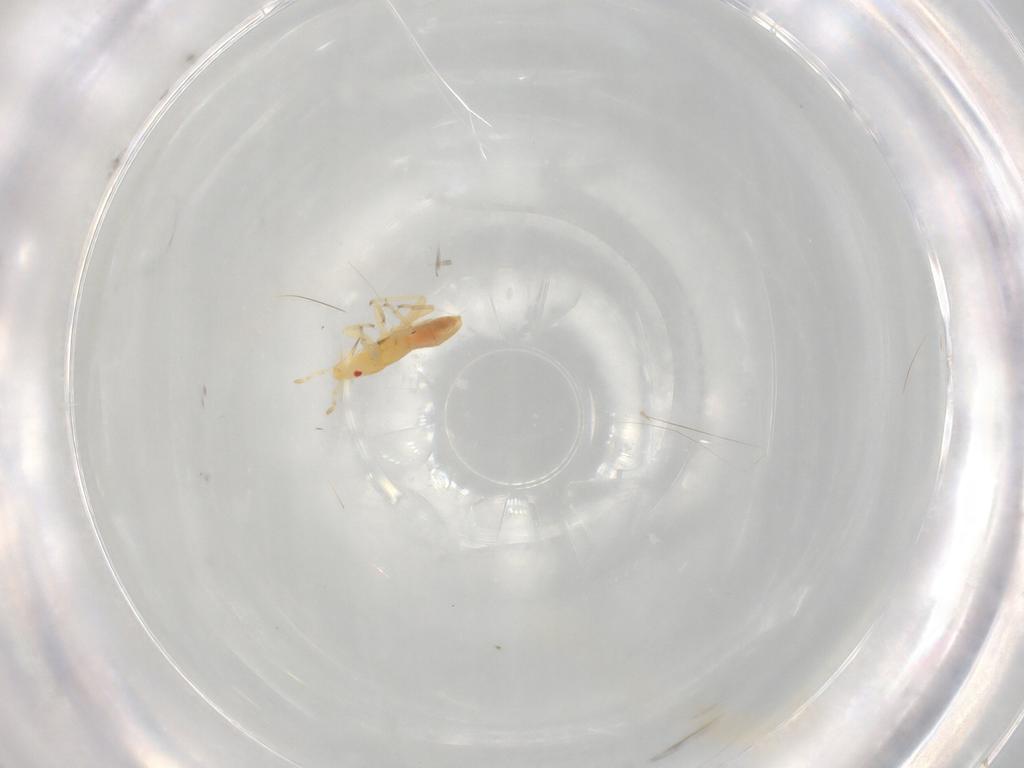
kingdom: Animalia
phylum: Arthropoda
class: Insecta
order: Hemiptera
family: Anthocoridae
